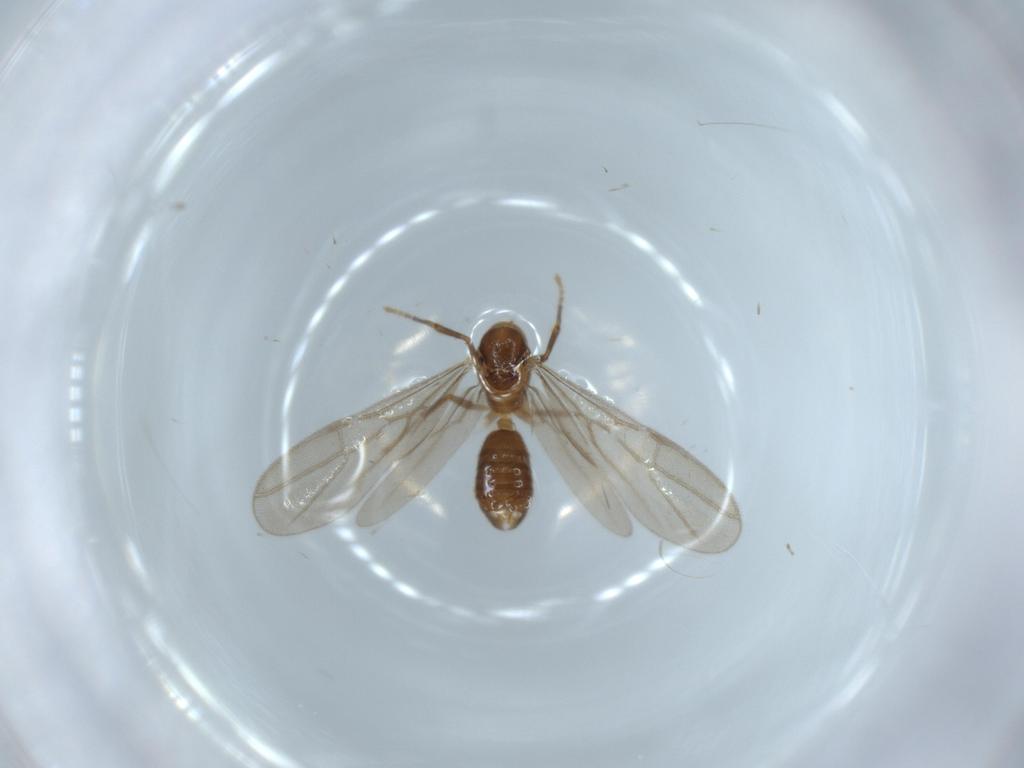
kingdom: Animalia
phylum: Arthropoda
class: Insecta
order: Hymenoptera
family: Formicidae
